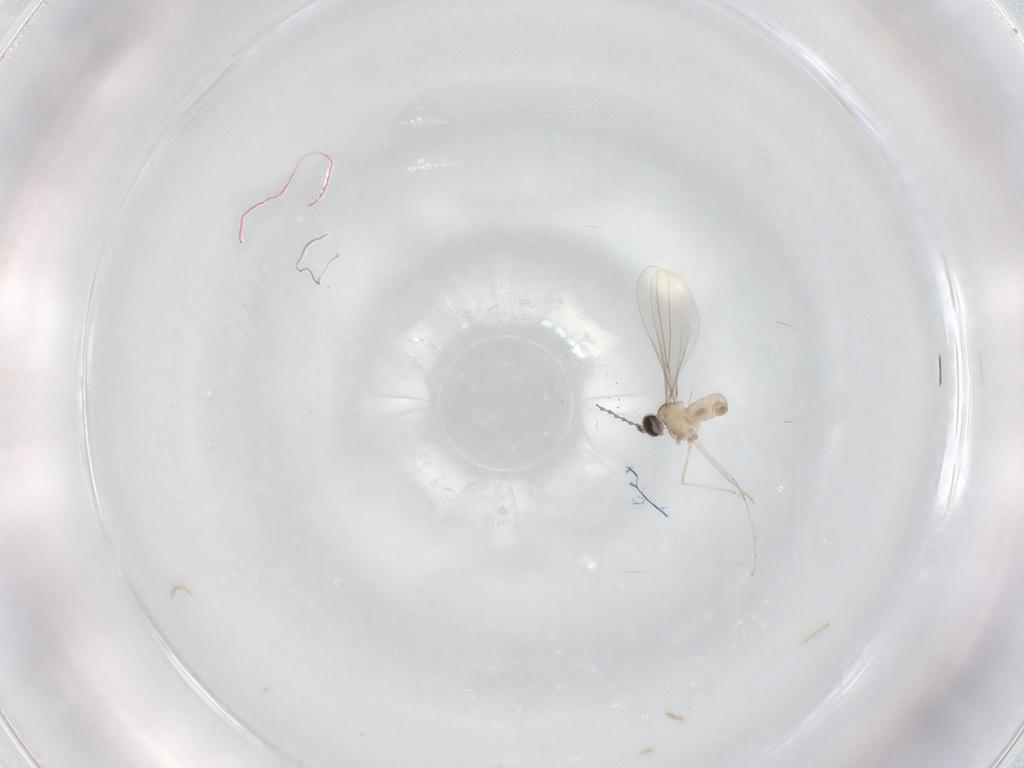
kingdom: Animalia
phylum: Arthropoda
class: Insecta
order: Diptera
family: Cecidomyiidae
